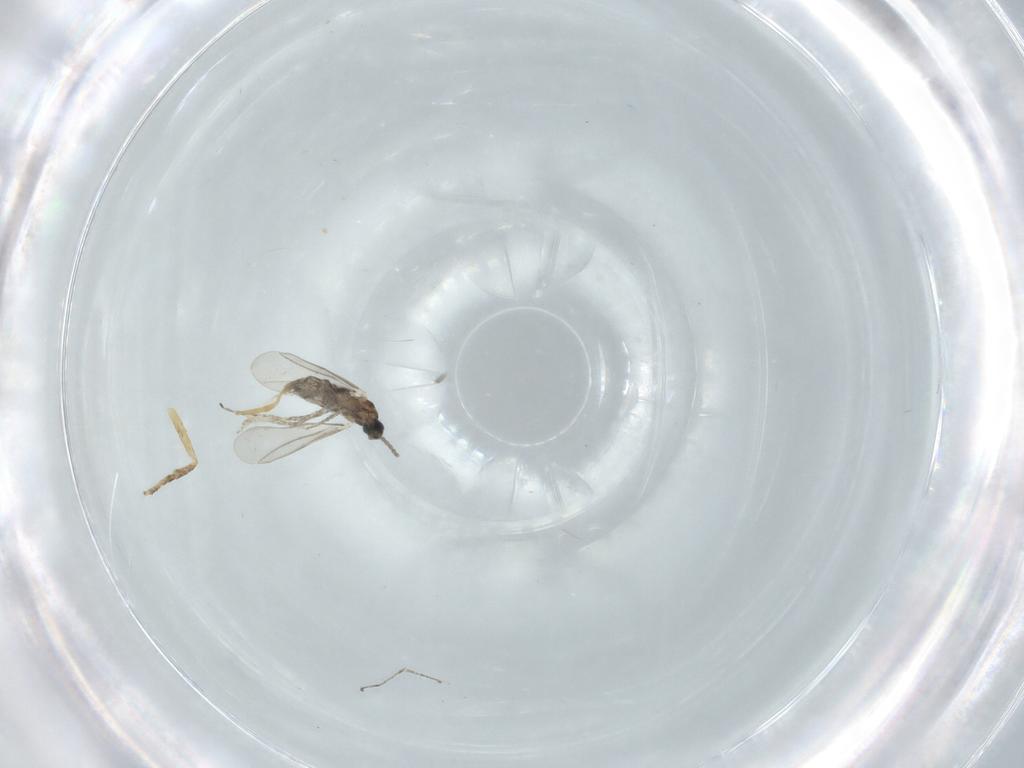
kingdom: Animalia
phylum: Arthropoda
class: Insecta
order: Diptera
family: Cecidomyiidae
